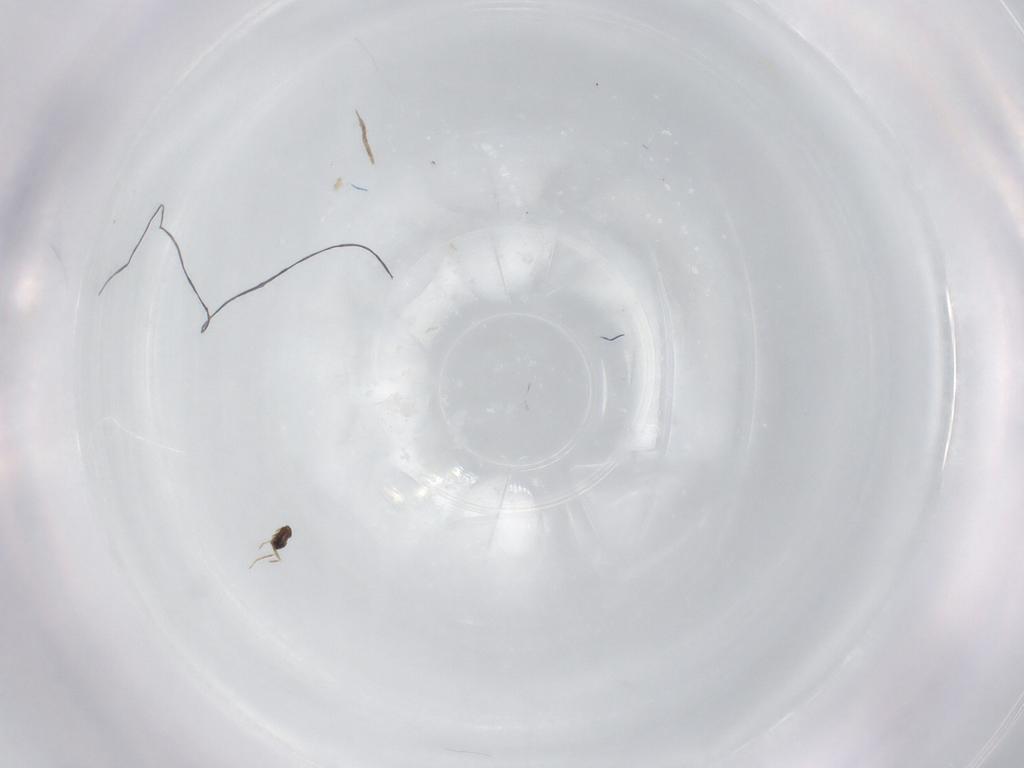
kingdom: Animalia
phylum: Arthropoda
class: Insecta
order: Hymenoptera
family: Mymaridae
